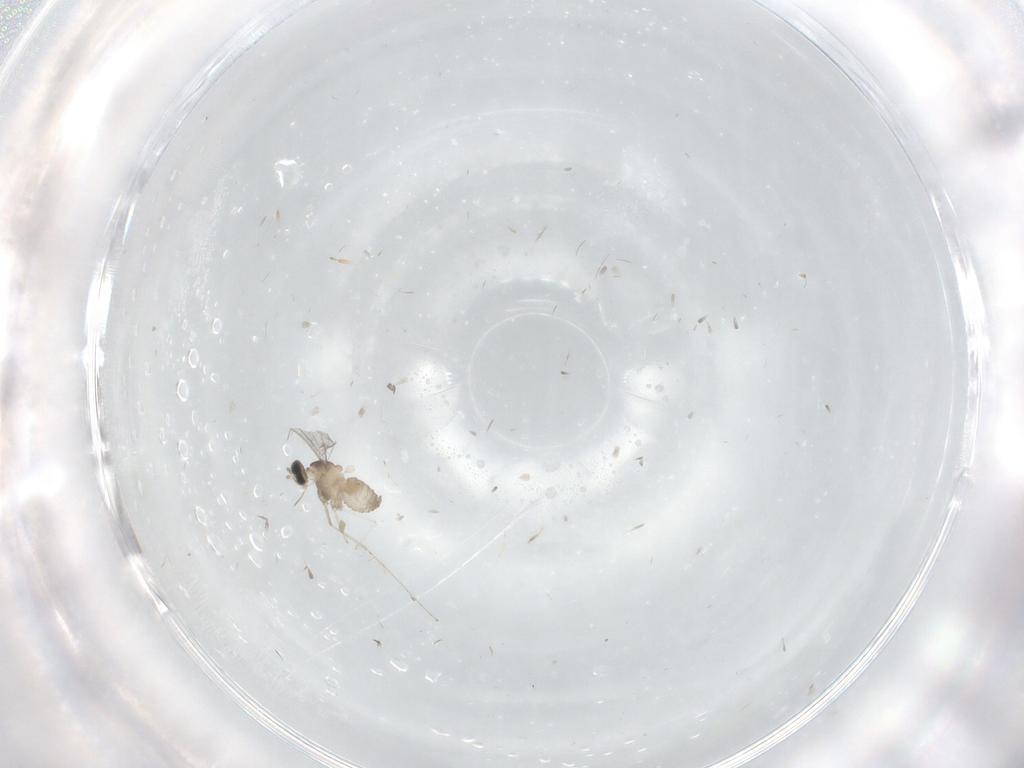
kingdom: Animalia
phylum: Arthropoda
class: Insecta
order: Diptera
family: Cecidomyiidae
